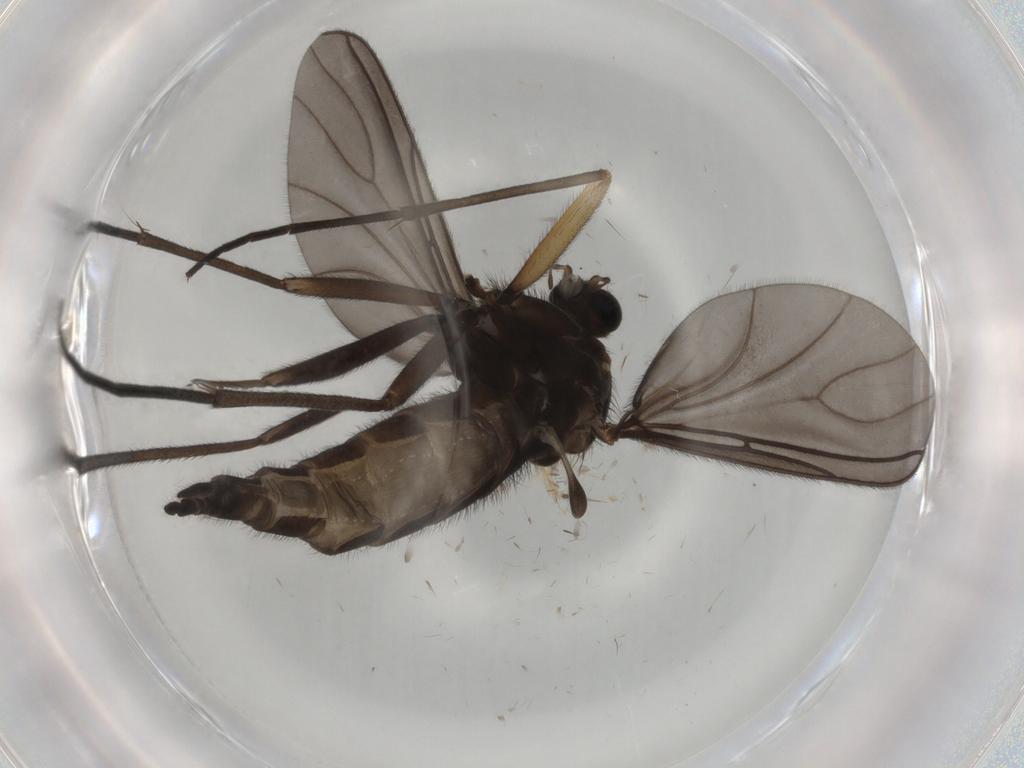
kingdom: Animalia
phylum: Arthropoda
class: Insecta
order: Diptera
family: Sciaridae
